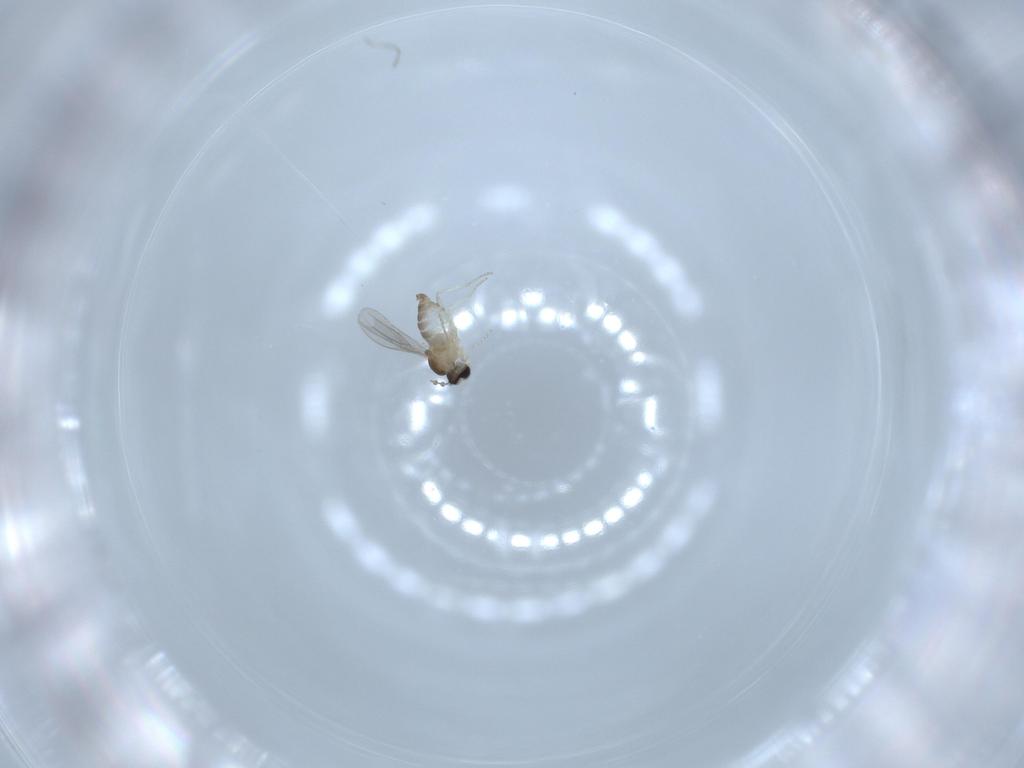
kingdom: Animalia
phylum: Arthropoda
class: Insecta
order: Diptera
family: Cecidomyiidae
